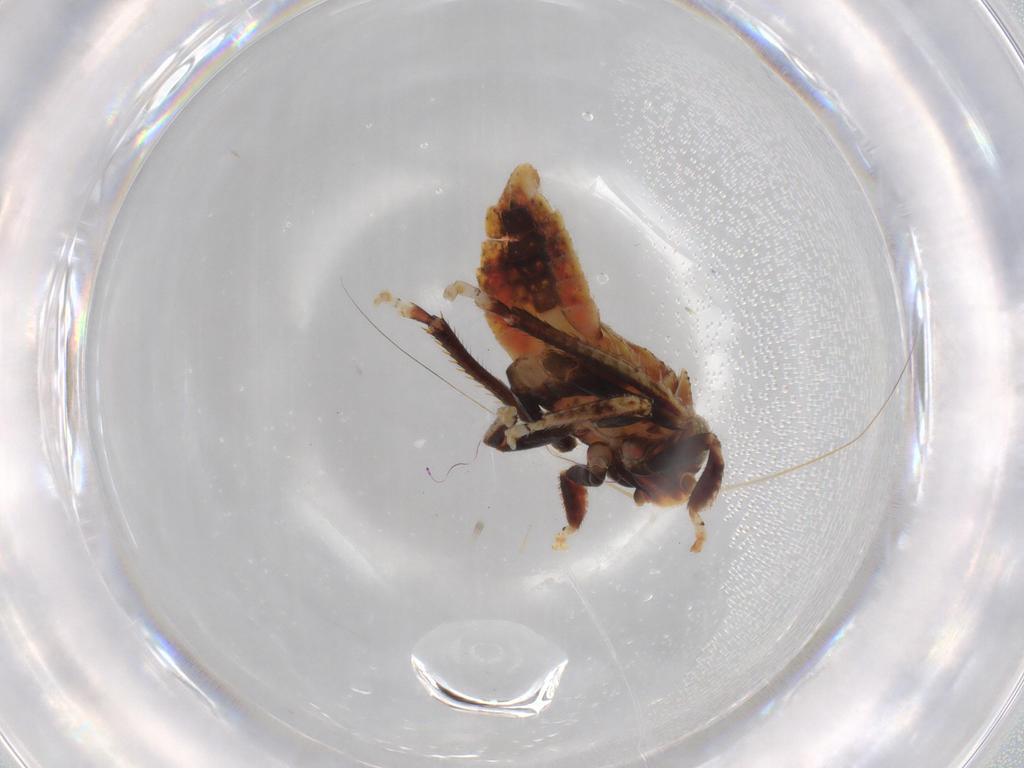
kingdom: Animalia
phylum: Arthropoda
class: Insecta
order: Hemiptera
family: Cicadellidae
